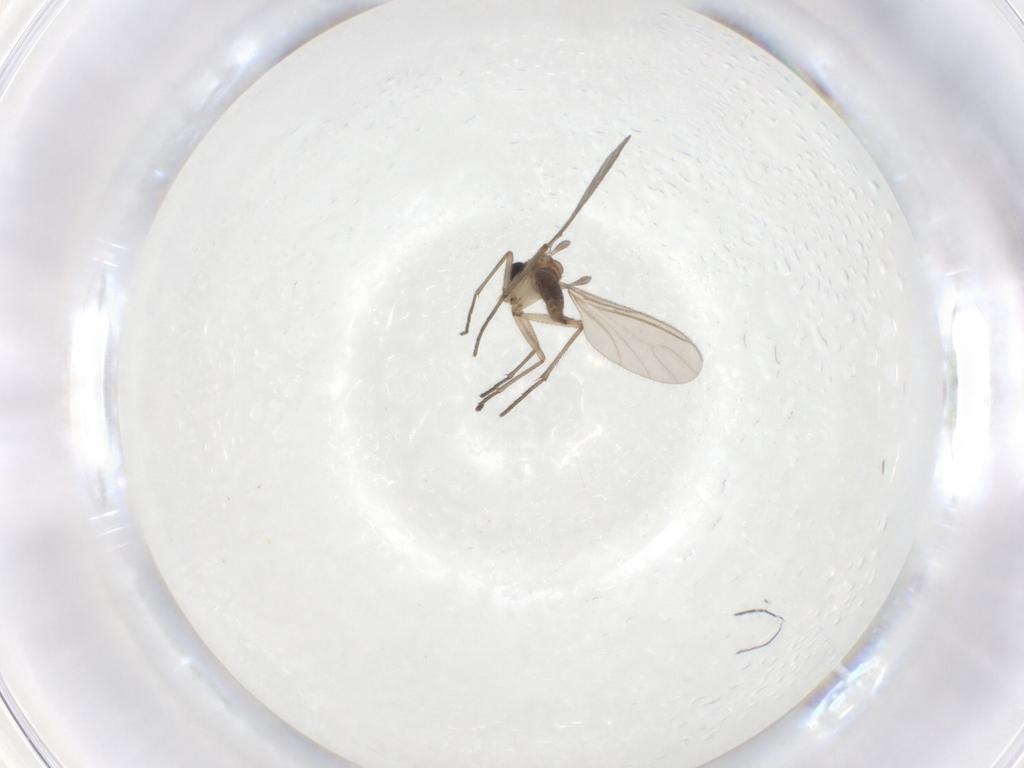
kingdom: Animalia
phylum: Arthropoda
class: Insecta
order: Diptera
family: Sciaridae
